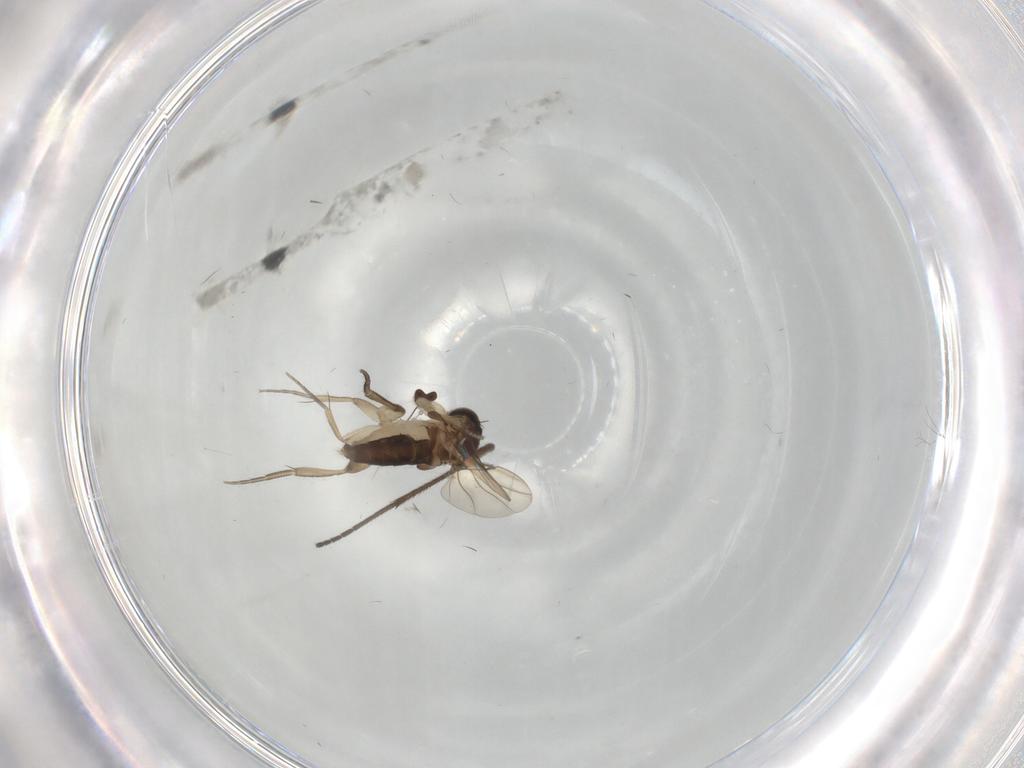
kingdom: Animalia
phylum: Arthropoda
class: Insecta
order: Diptera
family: Phoridae
